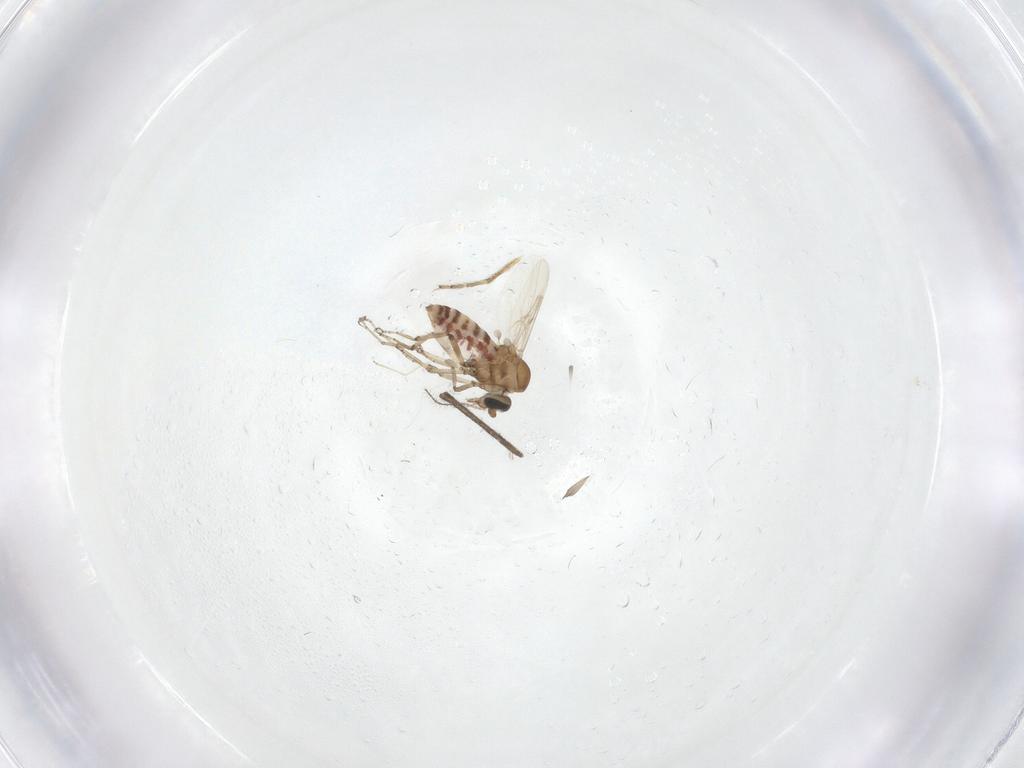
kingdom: Animalia
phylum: Arthropoda
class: Insecta
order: Diptera
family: Ceratopogonidae
